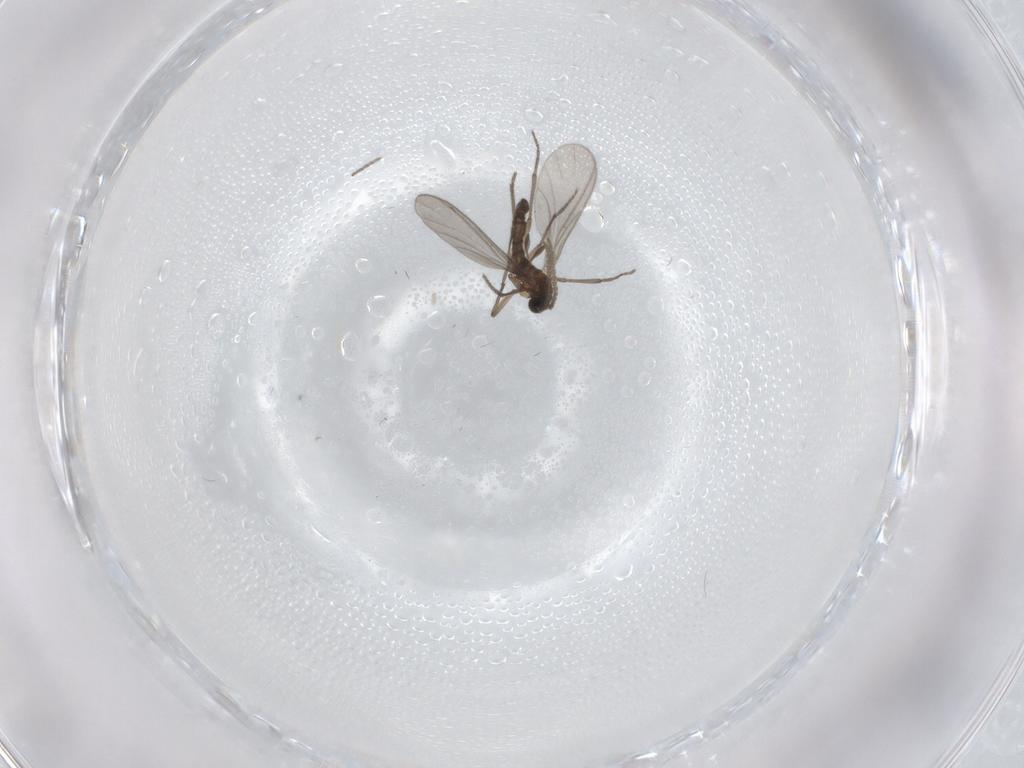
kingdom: Animalia
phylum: Arthropoda
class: Insecta
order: Diptera
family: Sciaridae
